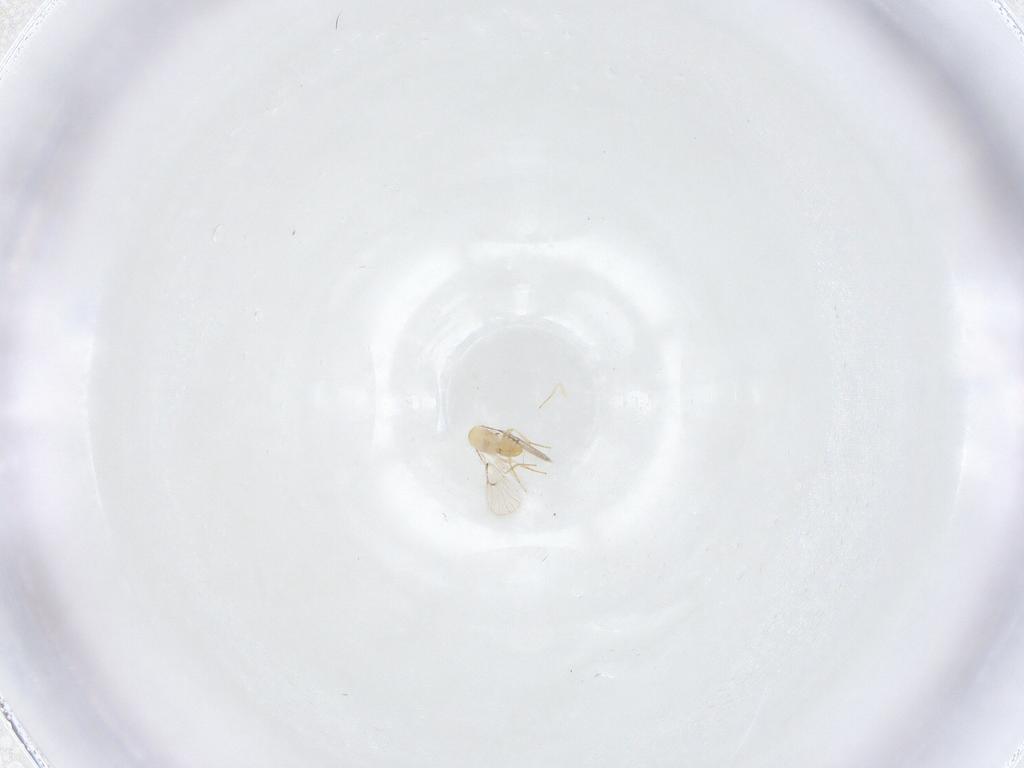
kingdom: Animalia
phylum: Arthropoda
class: Insecta
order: Hymenoptera
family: Trichogrammatidae
